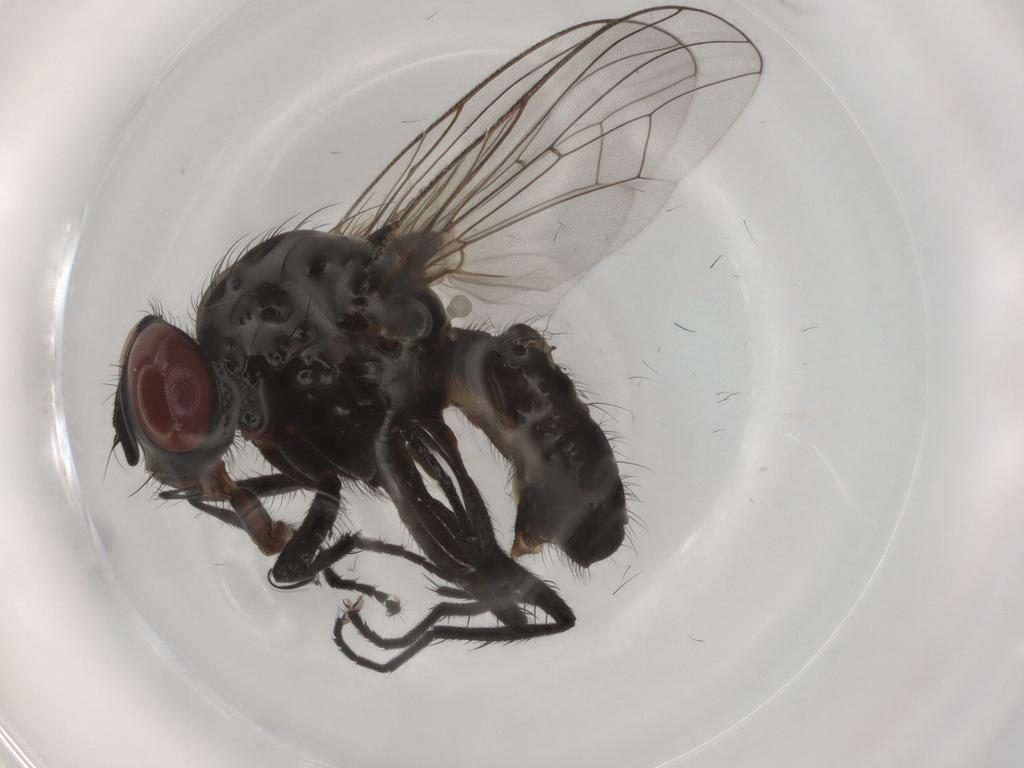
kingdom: Animalia
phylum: Arthropoda
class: Insecta
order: Diptera
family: Chironomidae
